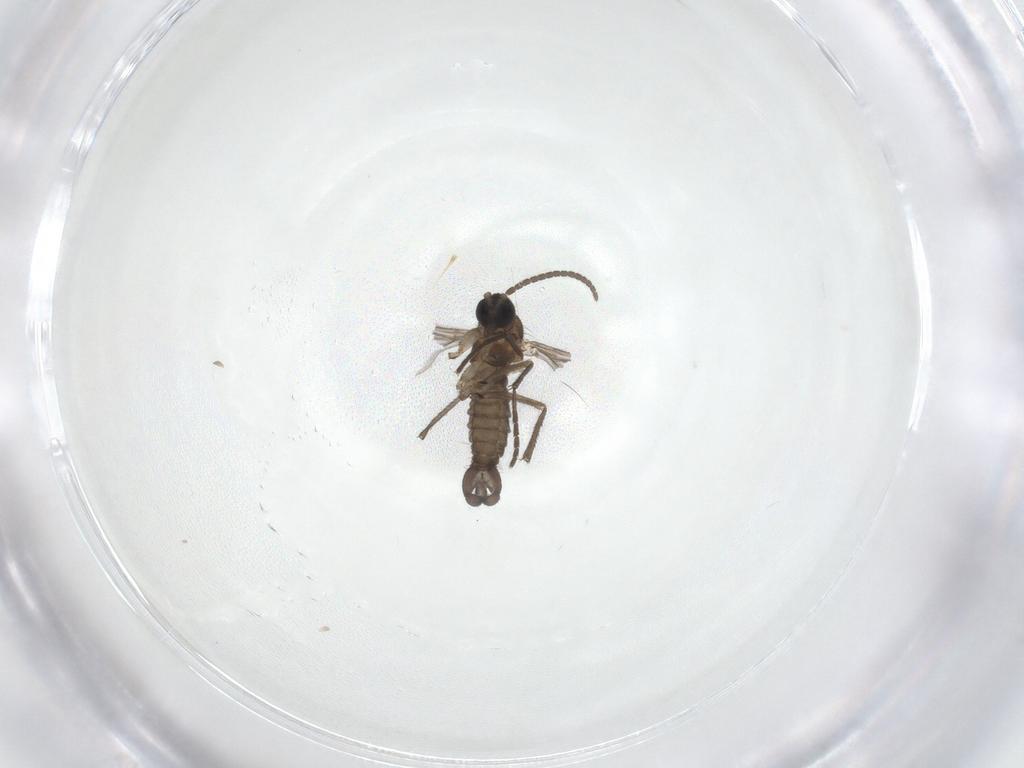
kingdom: Animalia
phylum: Arthropoda
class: Insecta
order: Diptera
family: Sciaridae
